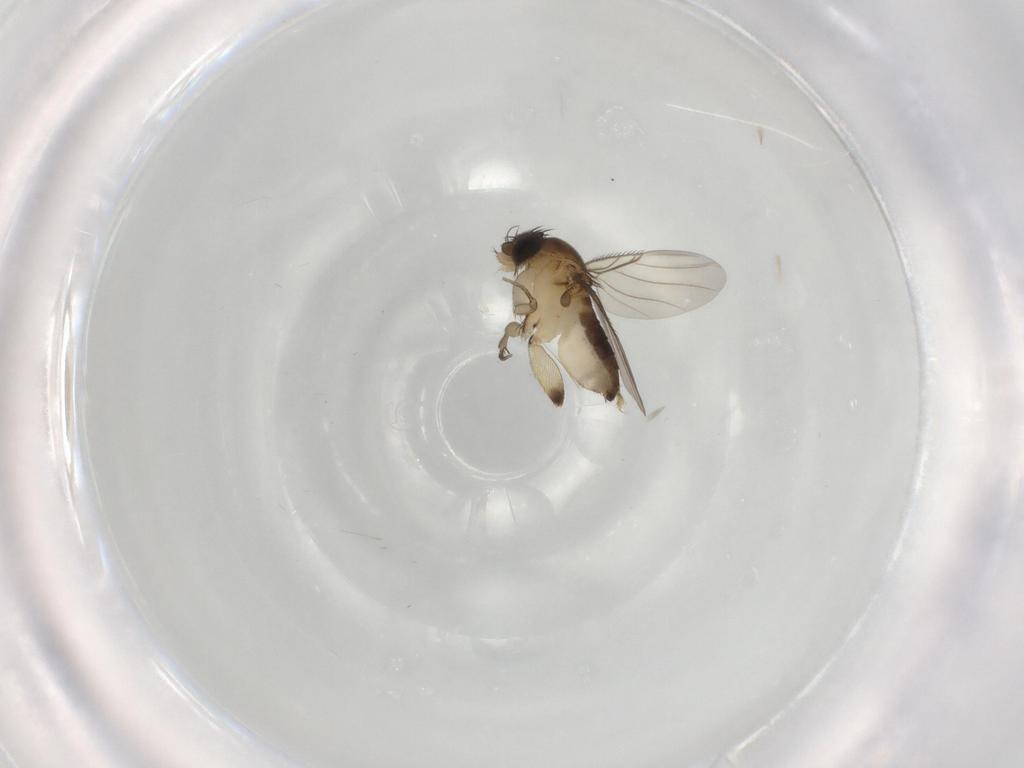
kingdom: Animalia
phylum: Arthropoda
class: Insecta
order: Diptera
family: Phoridae
